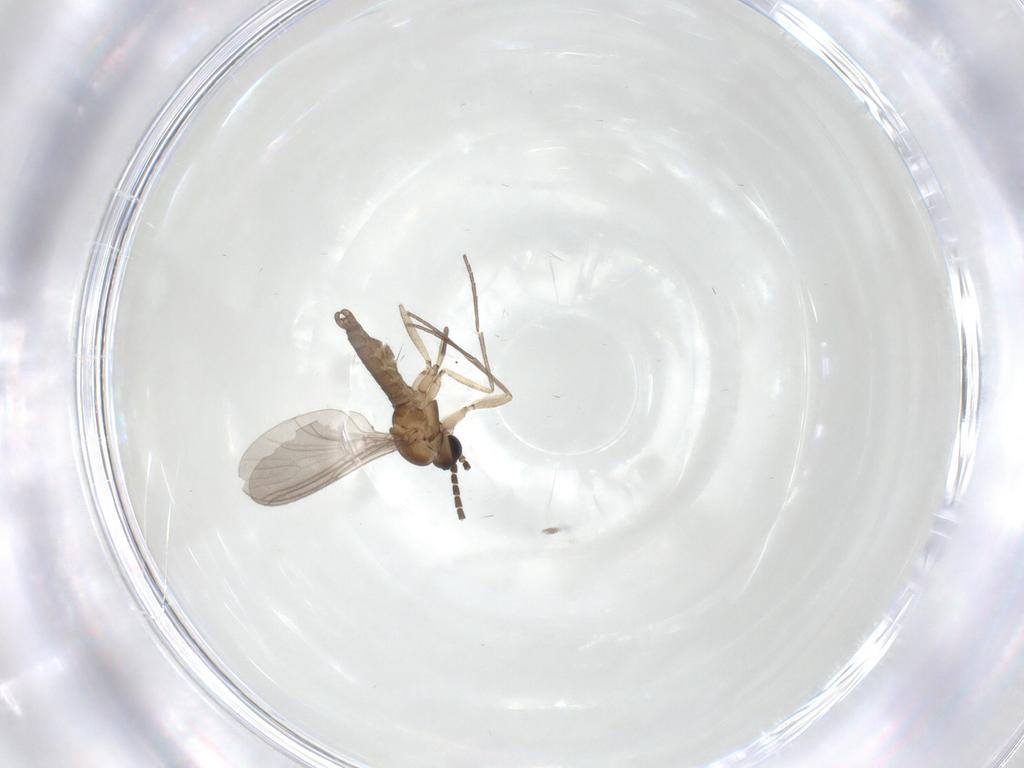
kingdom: Animalia
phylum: Arthropoda
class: Insecta
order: Diptera
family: Sciaridae
